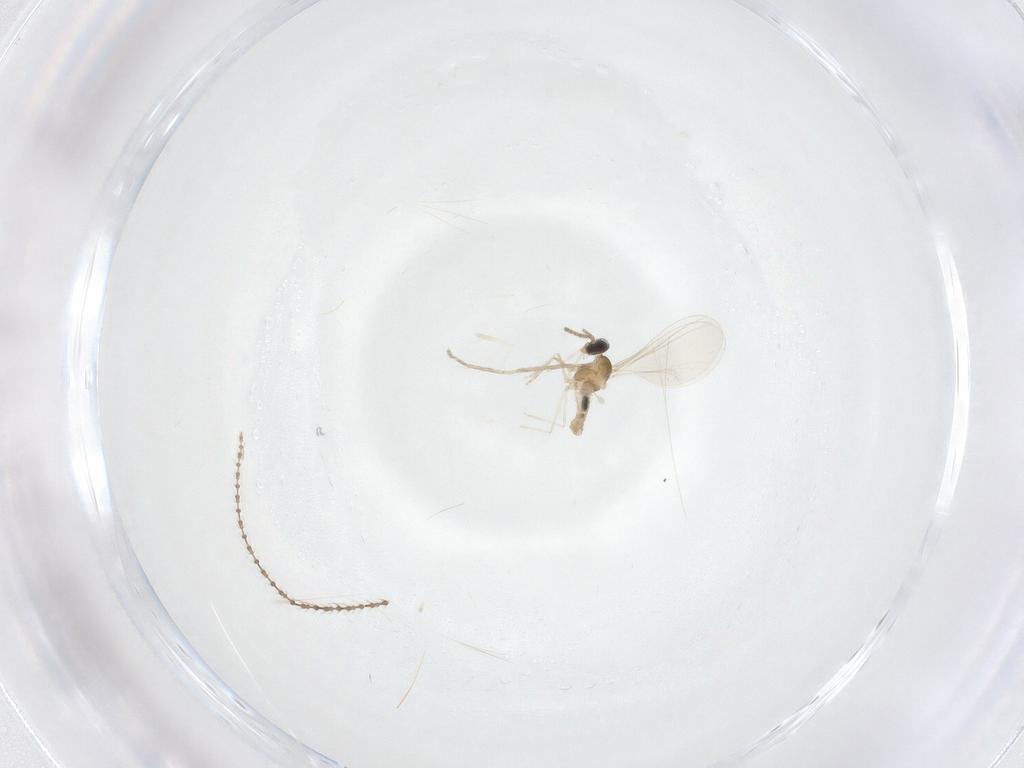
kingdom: Animalia
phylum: Arthropoda
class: Insecta
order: Diptera
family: Cecidomyiidae
